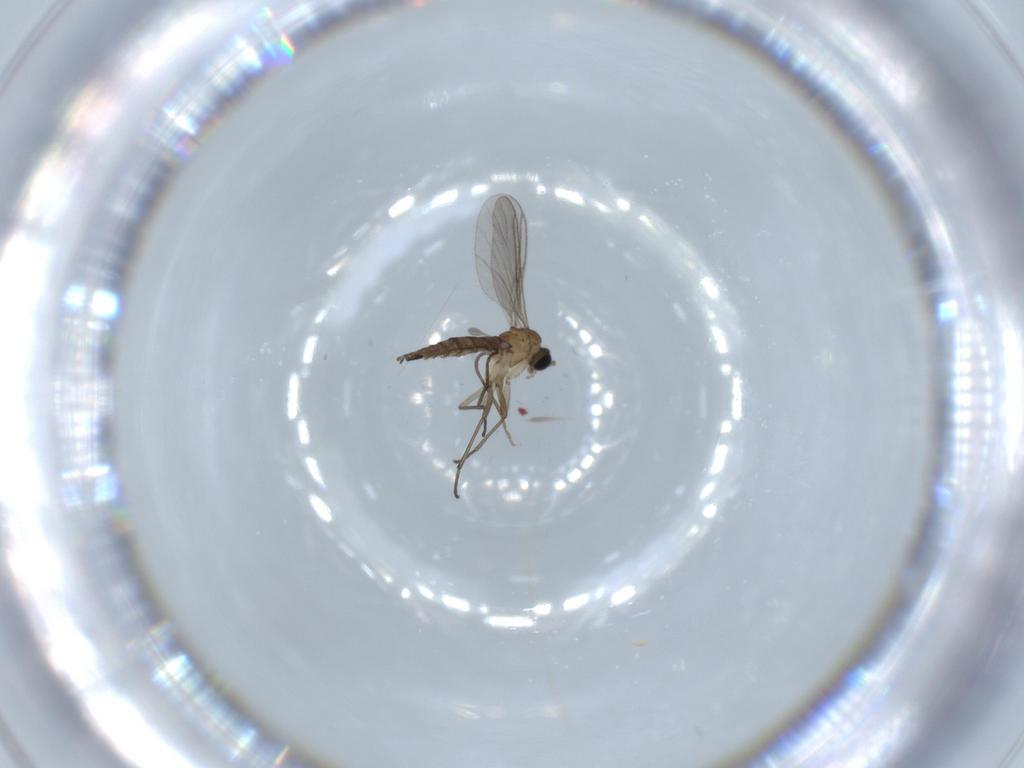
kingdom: Animalia
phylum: Arthropoda
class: Insecta
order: Diptera
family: Sciaridae
